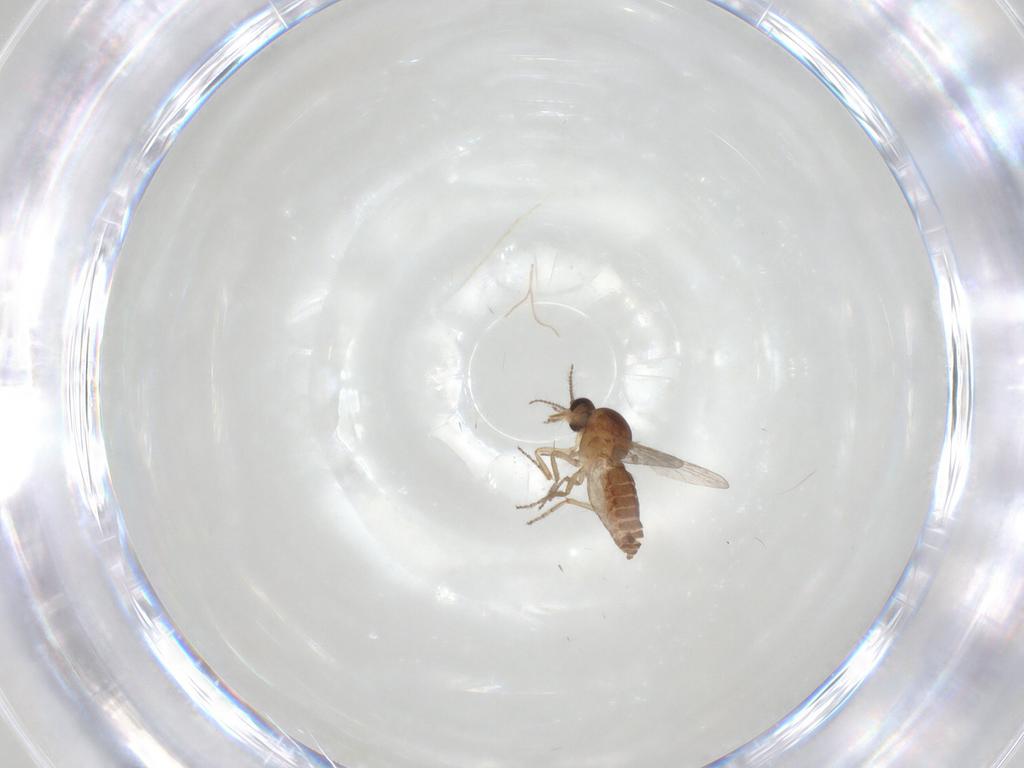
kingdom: Animalia
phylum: Arthropoda
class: Insecta
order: Diptera
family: Ceratopogonidae
